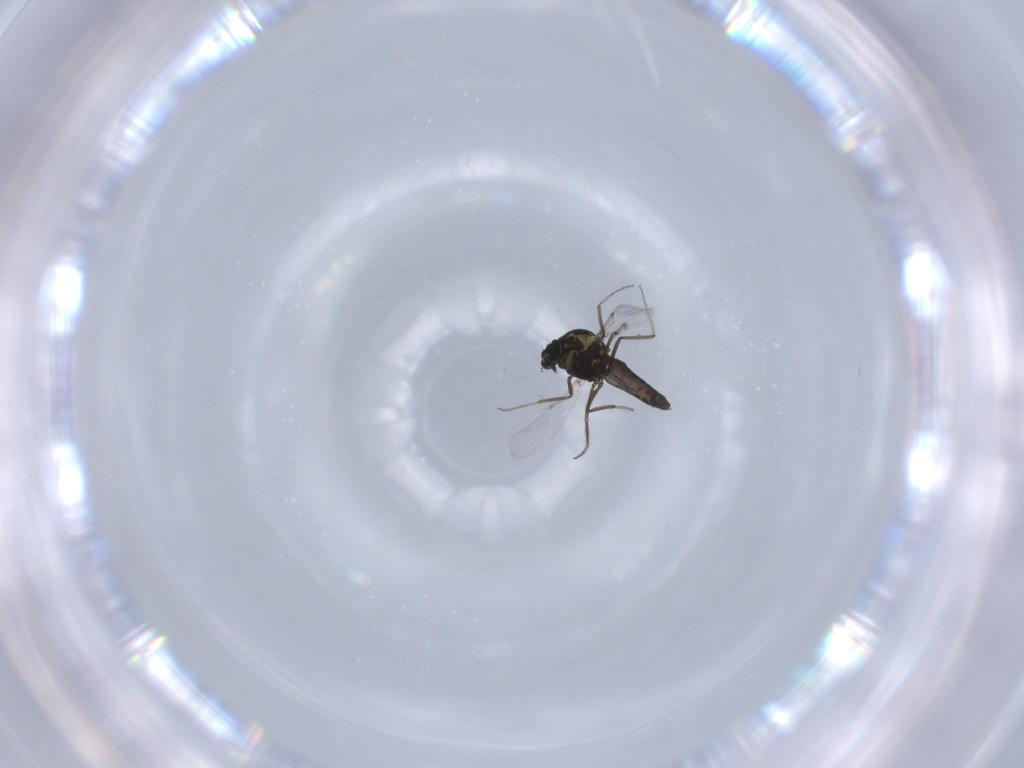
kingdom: Animalia
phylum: Arthropoda
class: Insecta
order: Diptera
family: Ceratopogonidae
